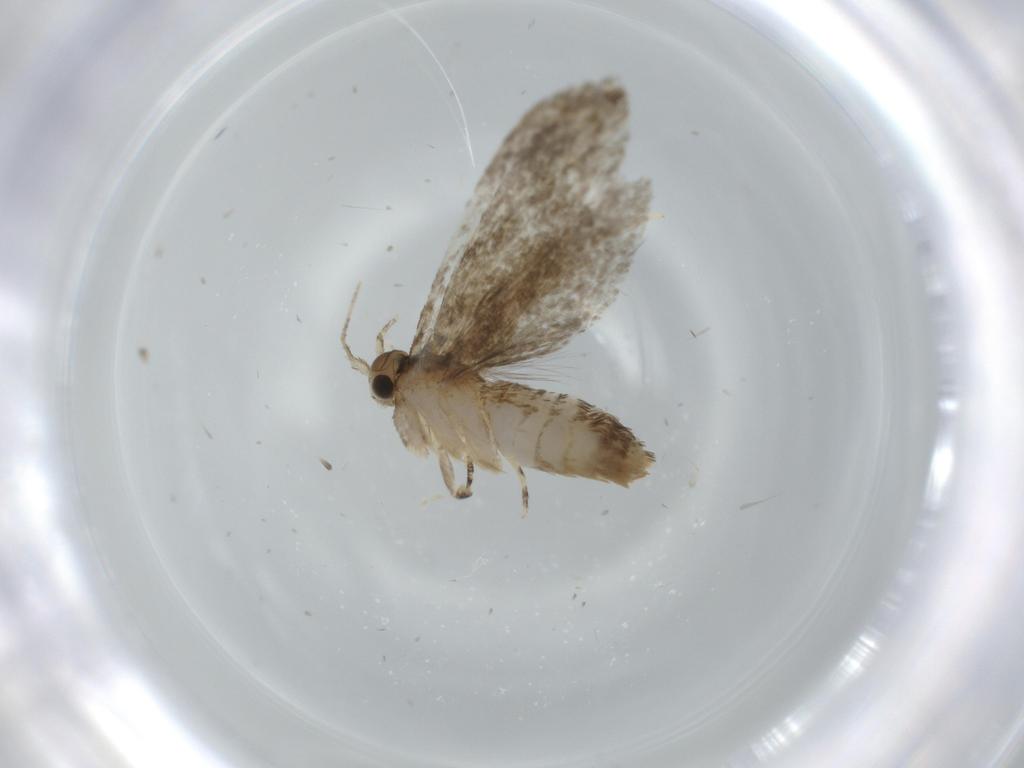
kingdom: Animalia
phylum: Arthropoda
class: Insecta
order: Lepidoptera
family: Tineidae
